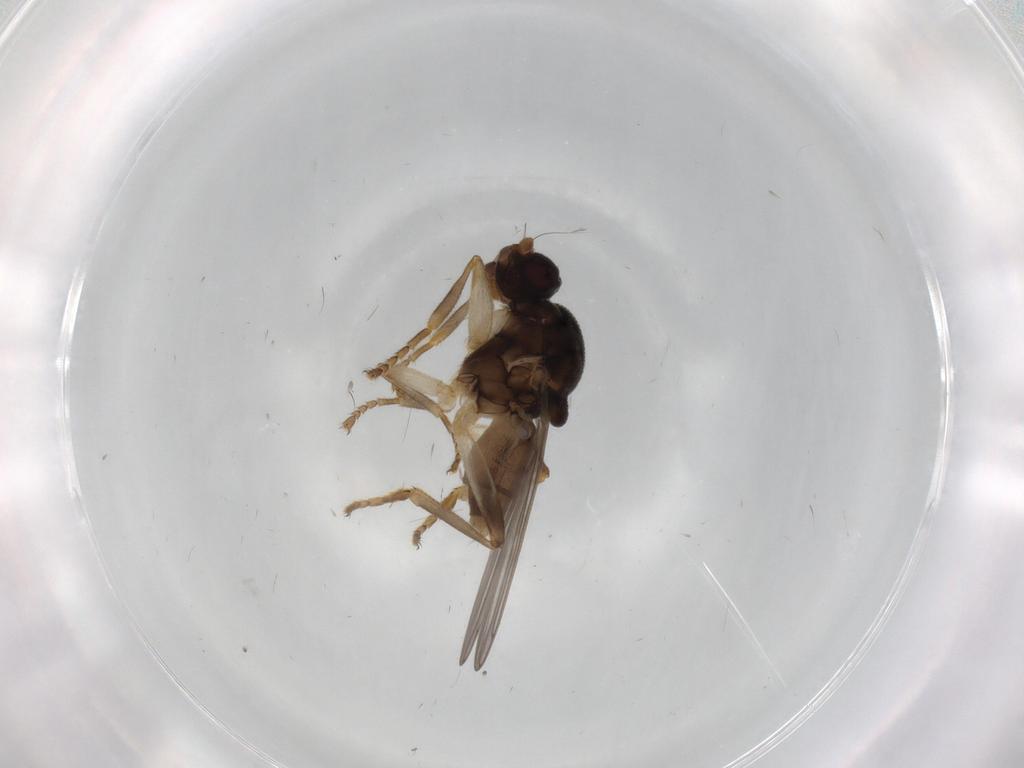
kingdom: Animalia
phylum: Arthropoda
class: Insecta
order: Diptera
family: Sphaeroceridae
